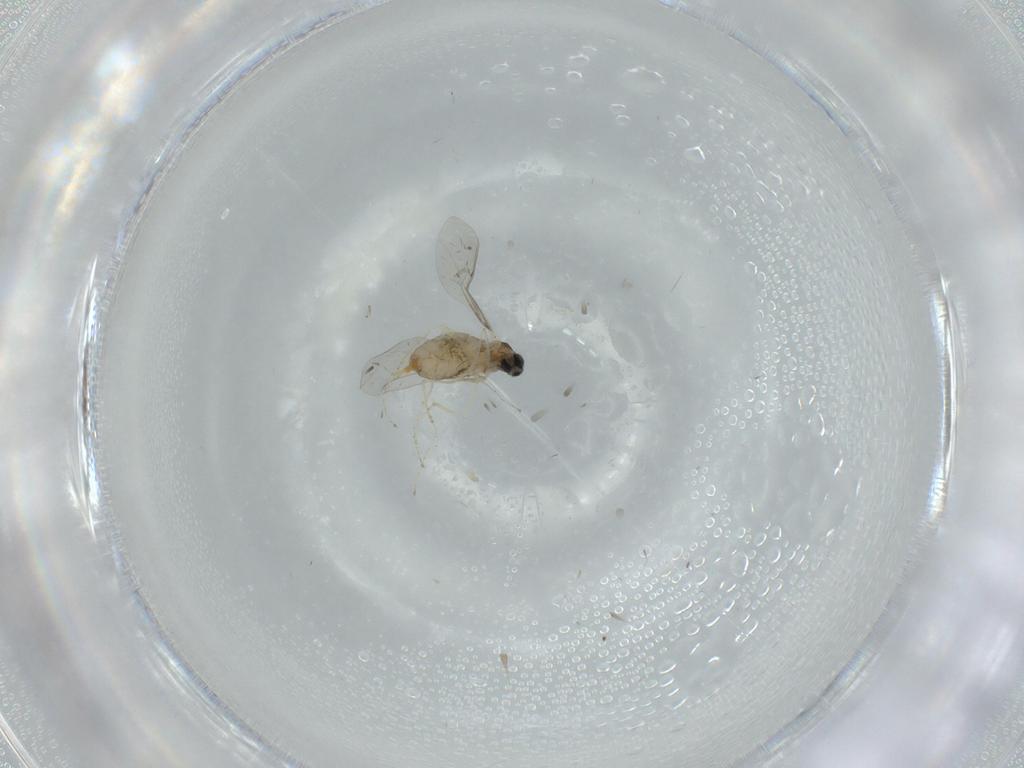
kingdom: Animalia
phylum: Arthropoda
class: Insecta
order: Diptera
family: Cecidomyiidae
